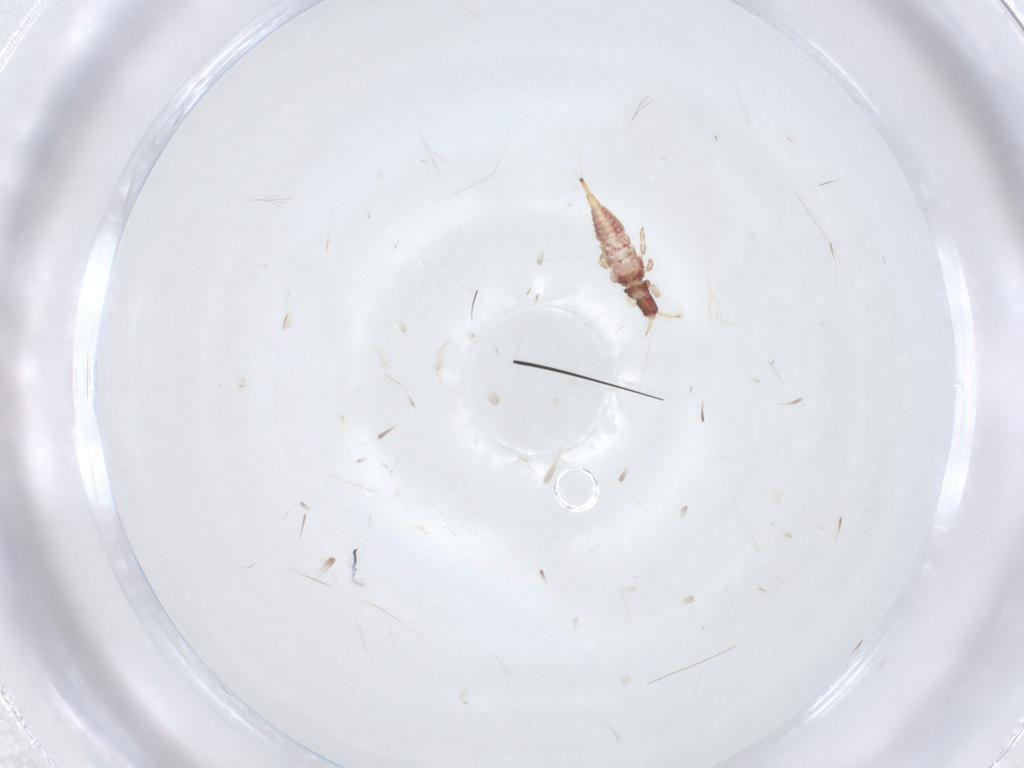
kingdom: Animalia
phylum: Arthropoda
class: Insecta
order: Thysanoptera
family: Phlaeothripidae
